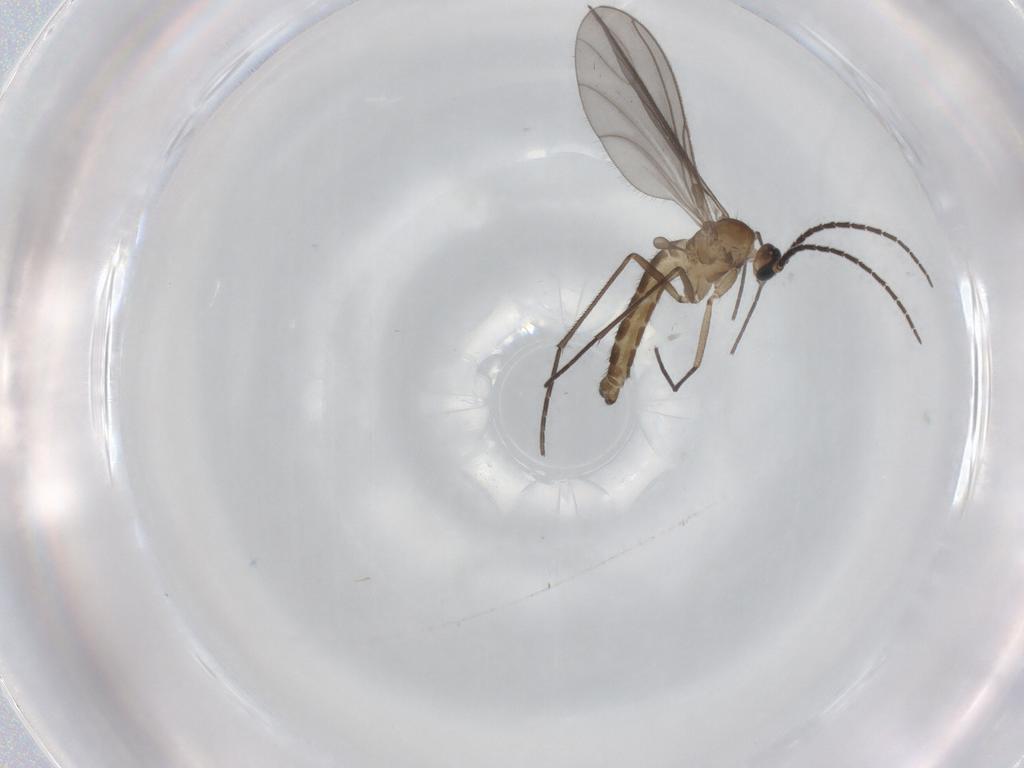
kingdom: Animalia
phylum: Arthropoda
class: Insecta
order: Diptera
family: Sciaridae
